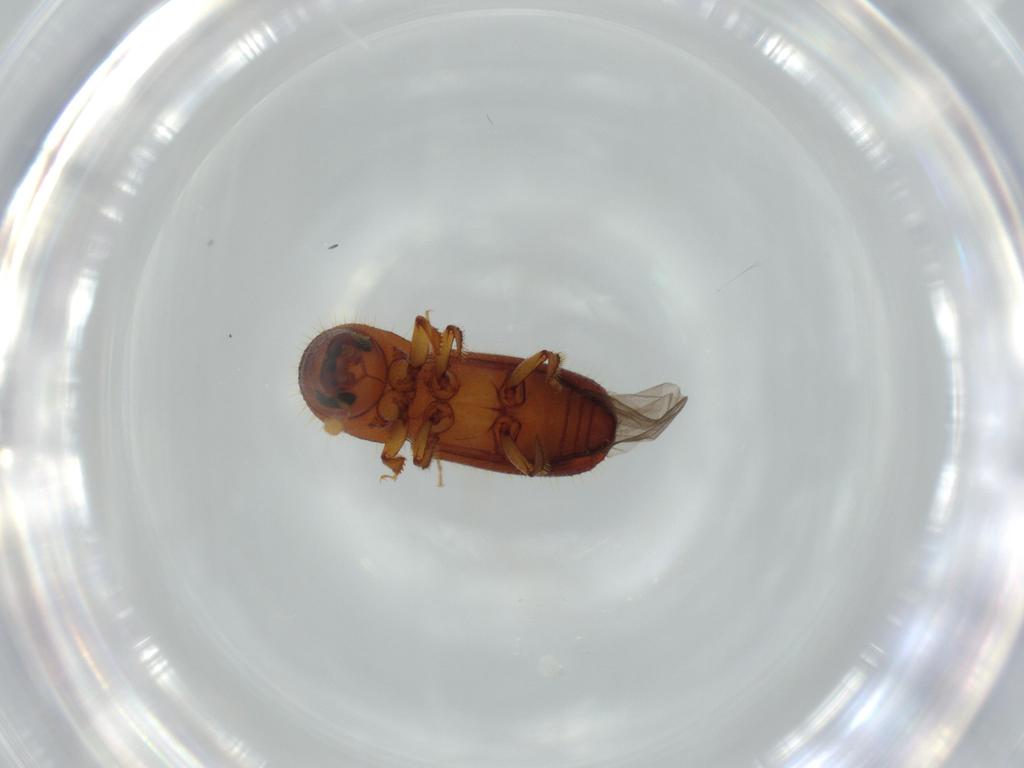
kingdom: Animalia
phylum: Arthropoda
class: Insecta
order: Coleoptera
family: Curculionidae
